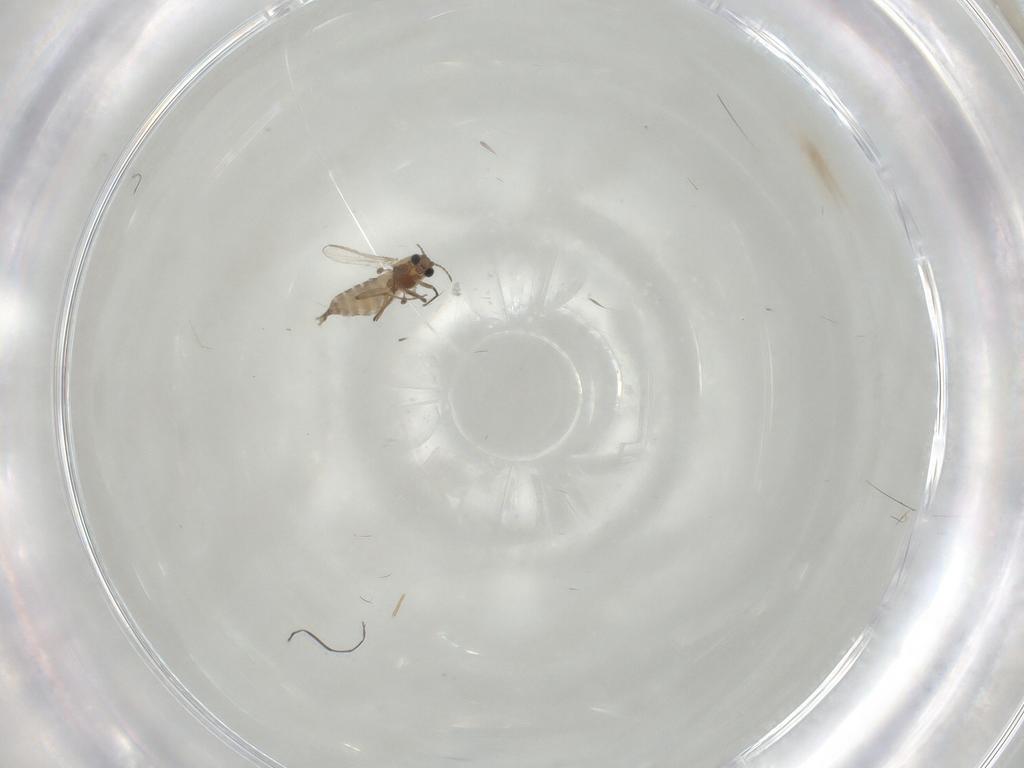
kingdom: Animalia
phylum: Arthropoda
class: Insecta
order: Diptera
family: Chironomidae
